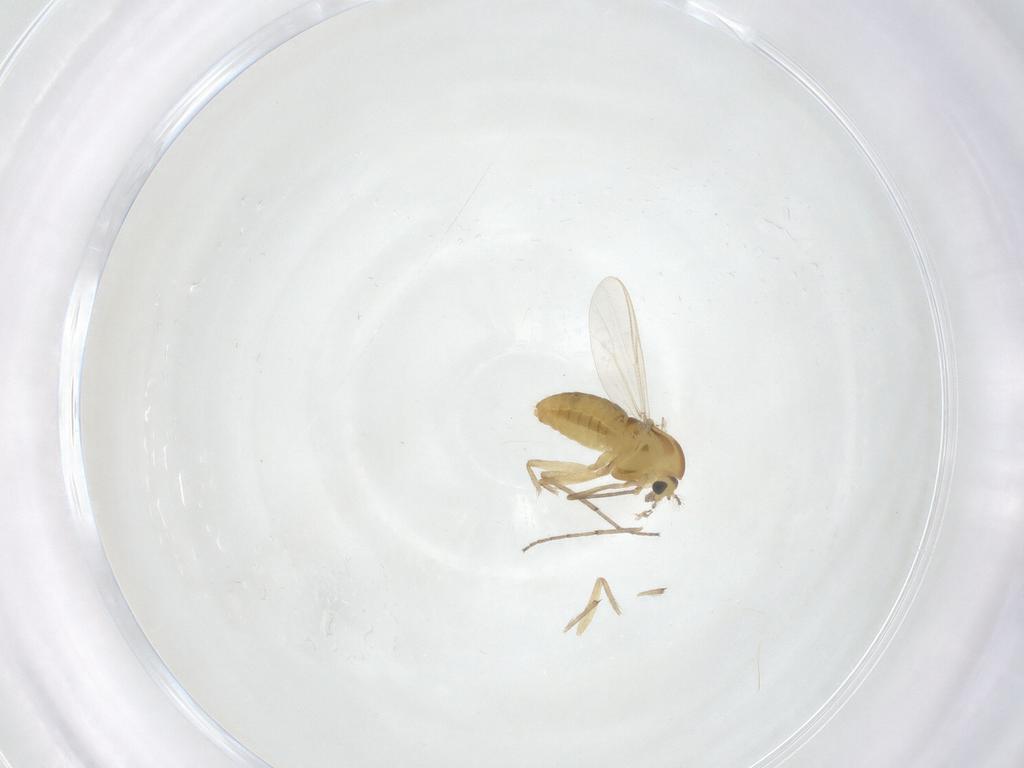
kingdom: Animalia
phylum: Arthropoda
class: Insecta
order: Diptera
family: Chironomidae
